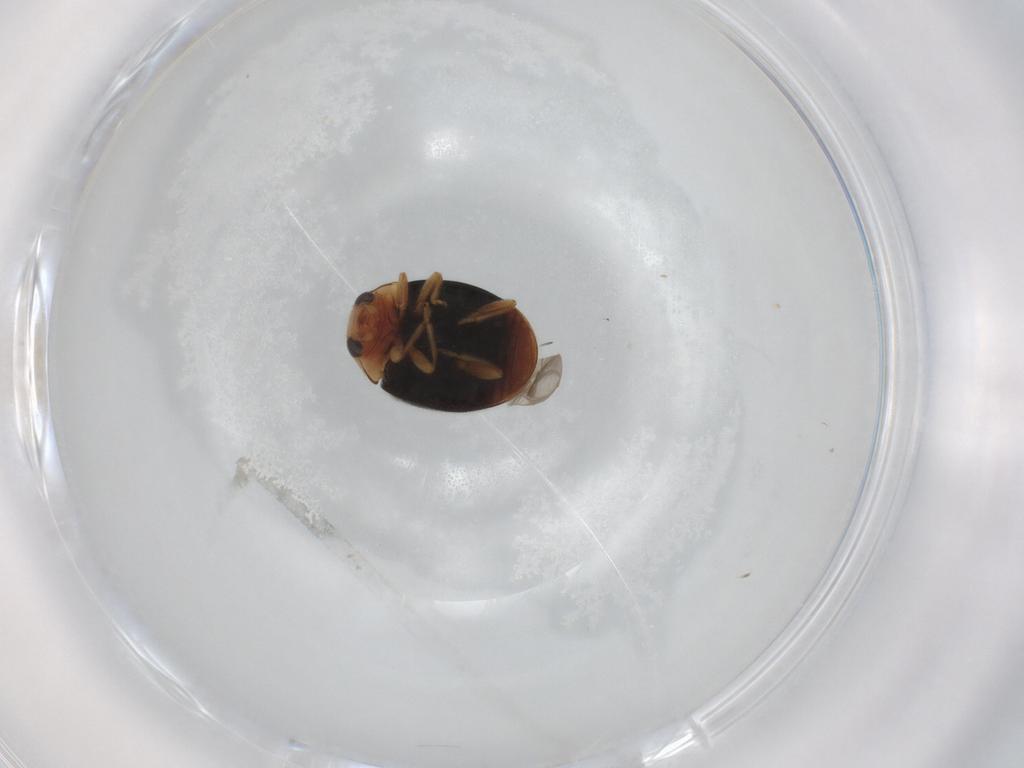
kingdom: Animalia
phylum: Arthropoda
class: Insecta
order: Coleoptera
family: Coccinellidae
